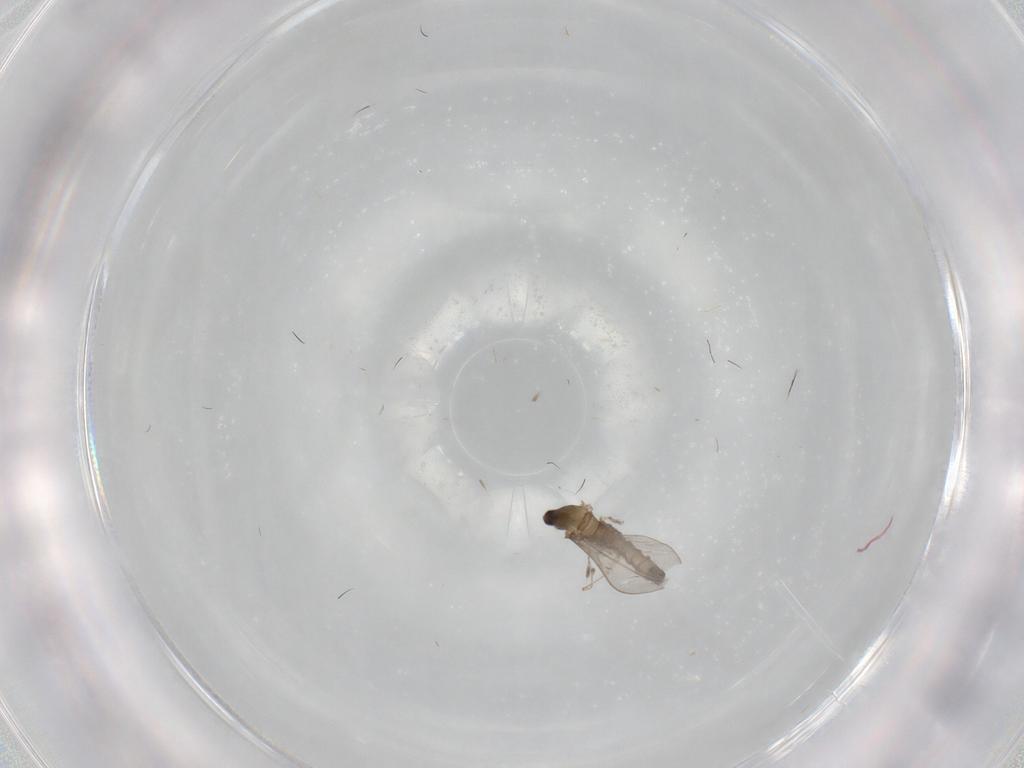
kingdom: Animalia
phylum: Arthropoda
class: Insecta
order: Diptera
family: Cecidomyiidae
